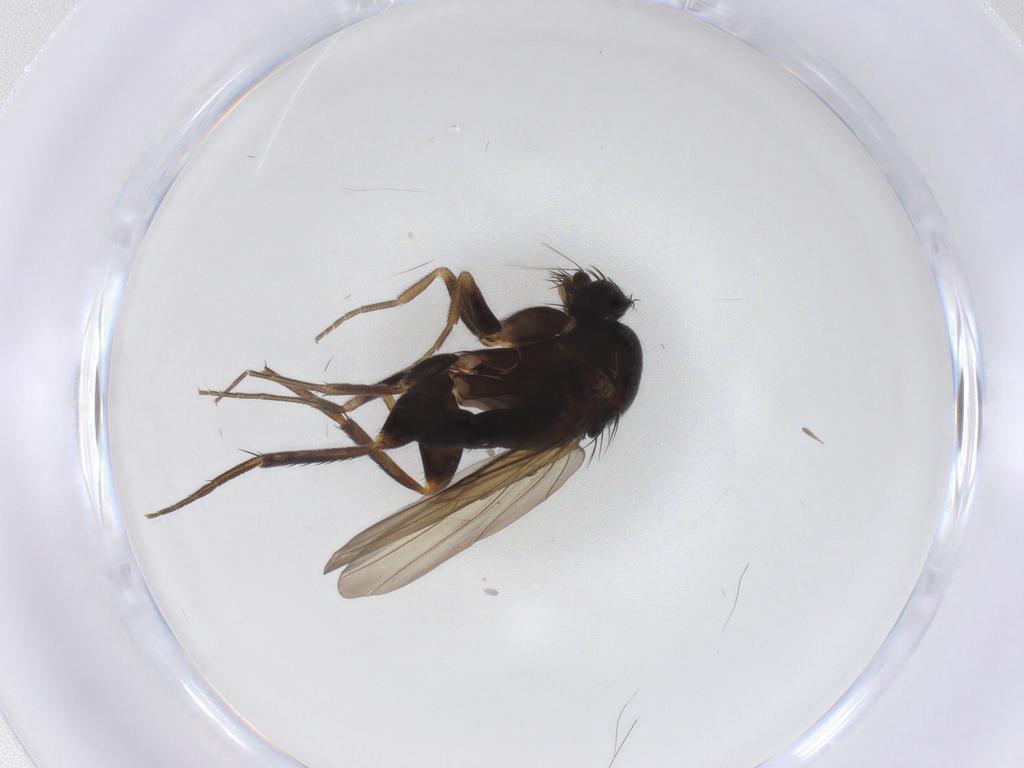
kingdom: Animalia
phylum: Arthropoda
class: Insecta
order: Diptera
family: Phoridae
